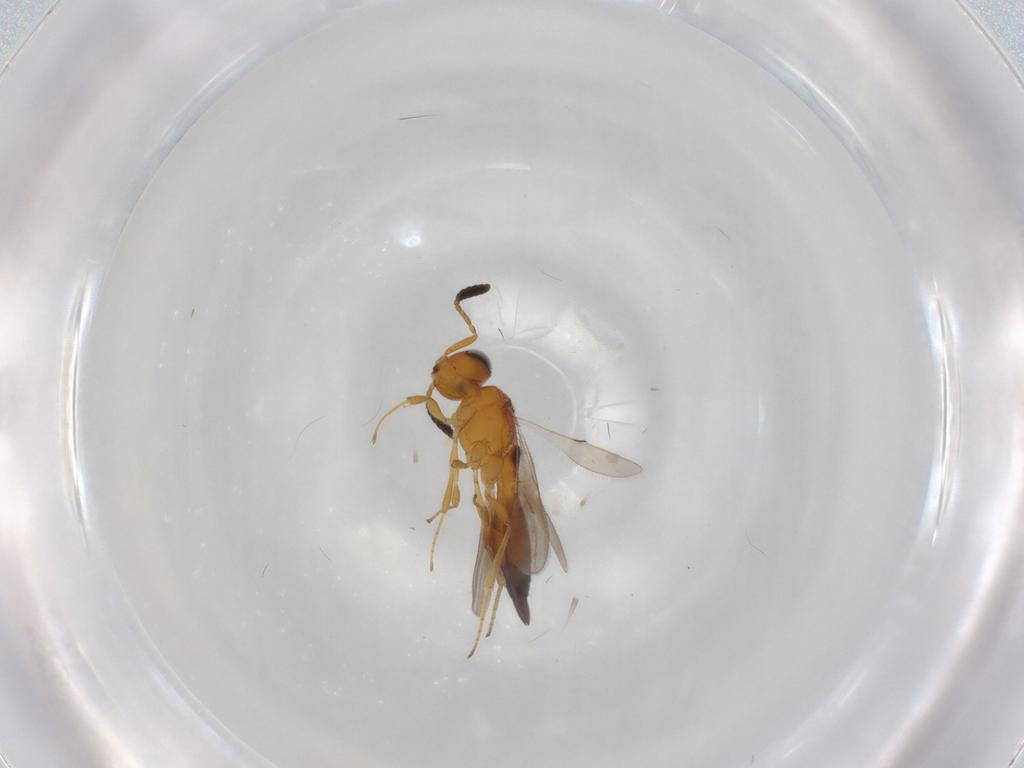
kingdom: Animalia
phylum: Arthropoda
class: Insecta
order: Hymenoptera
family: Scelionidae
